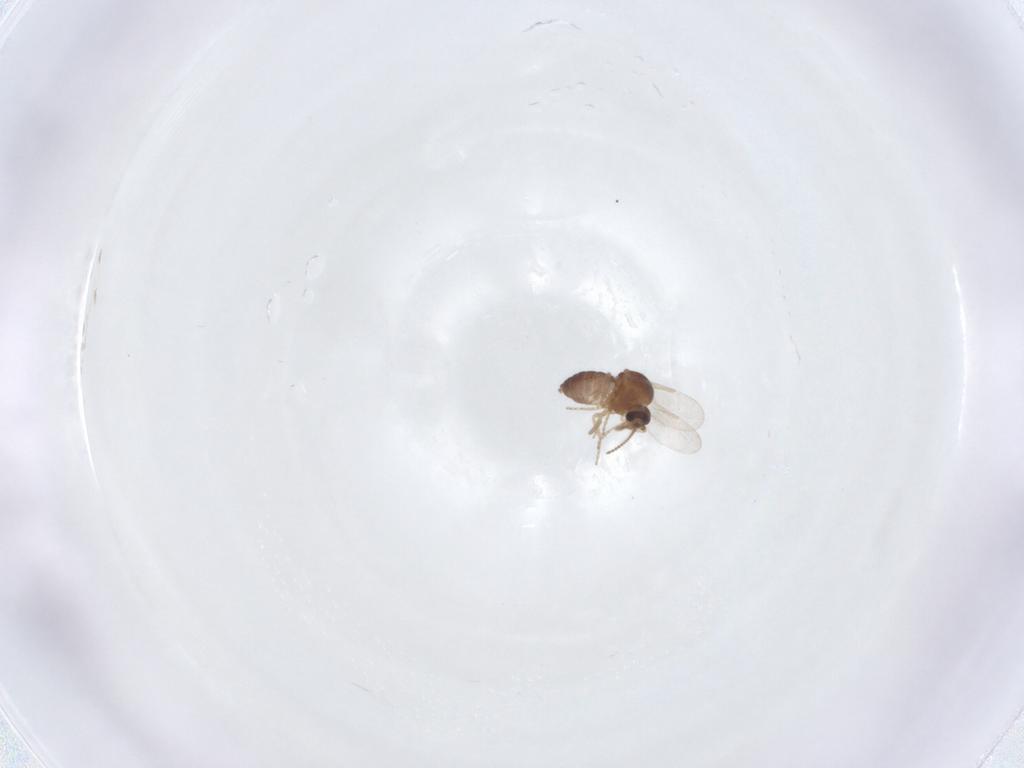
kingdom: Animalia
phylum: Arthropoda
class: Insecta
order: Diptera
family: Ceratopogonidae
